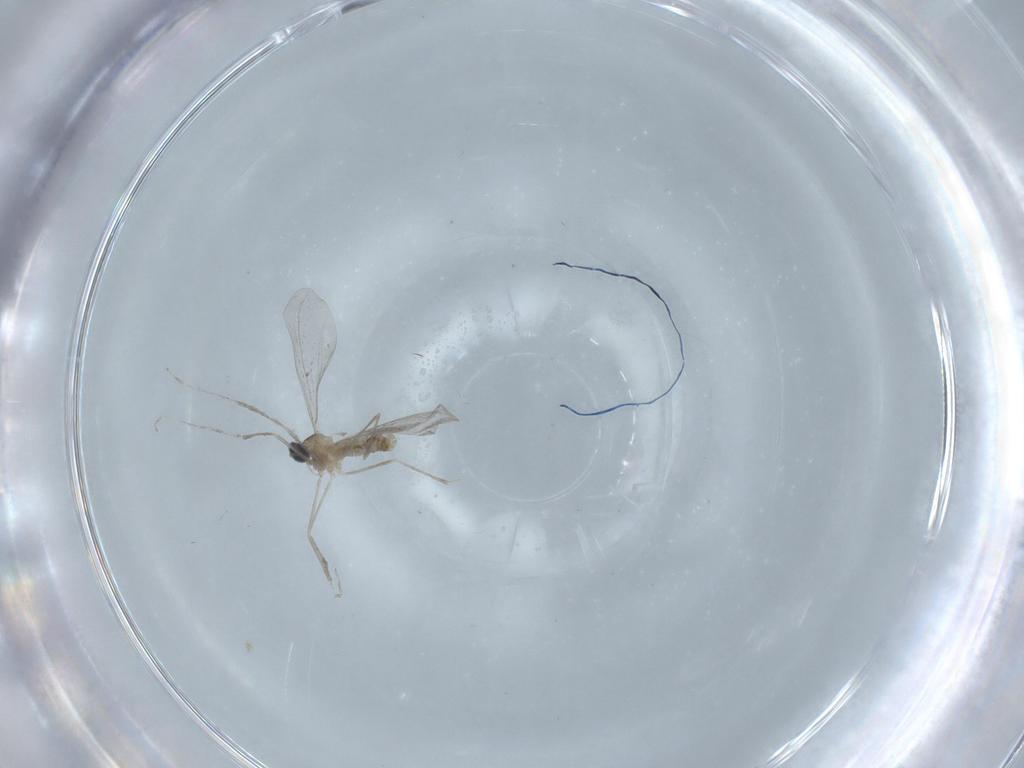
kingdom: Animalia
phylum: Arthropoda
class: Insecta
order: Diptera
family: Cecidomyiidae
